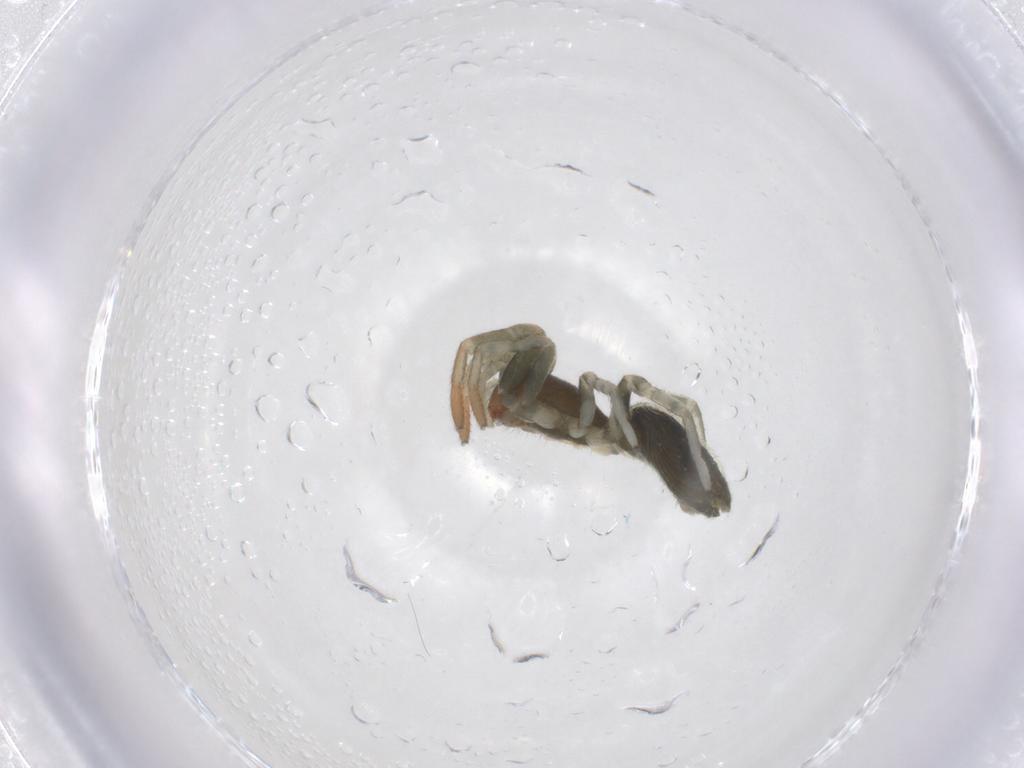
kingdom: Animalia
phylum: Arthropoda
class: Arachnida
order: Araneae
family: Trachelidae
